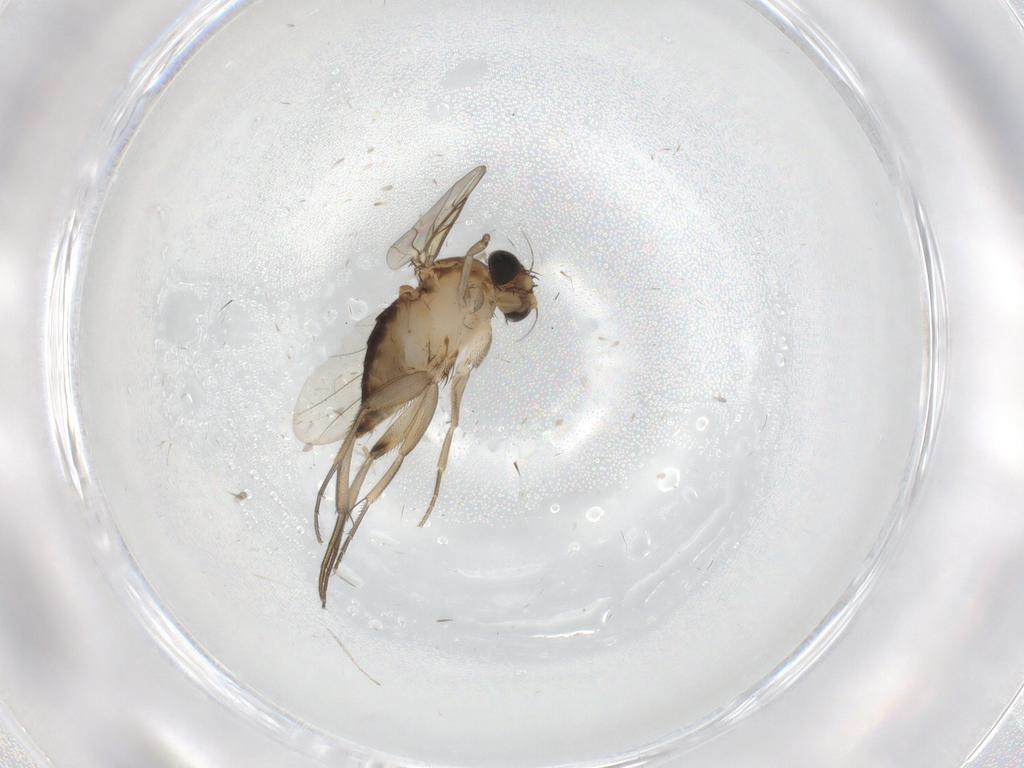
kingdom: Animalia
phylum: Arthropoda
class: Insecta
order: Diptera
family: Phoridae
